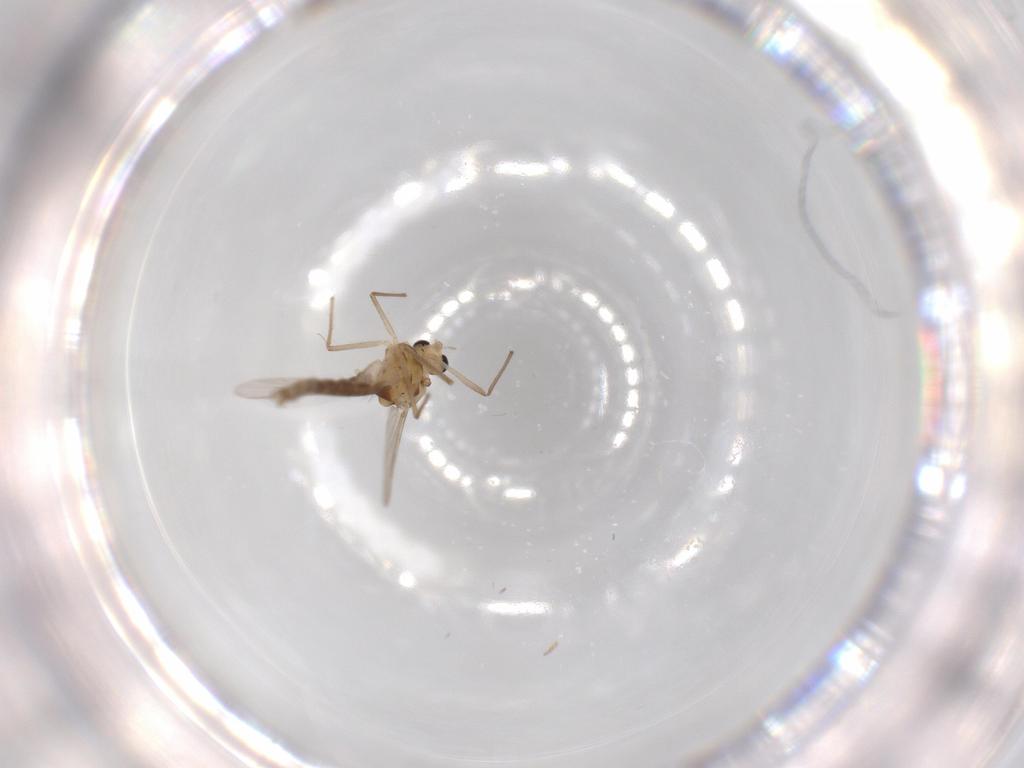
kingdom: Animalia
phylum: Arthropoda
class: Insecta
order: Diptera
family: Chironomidae
